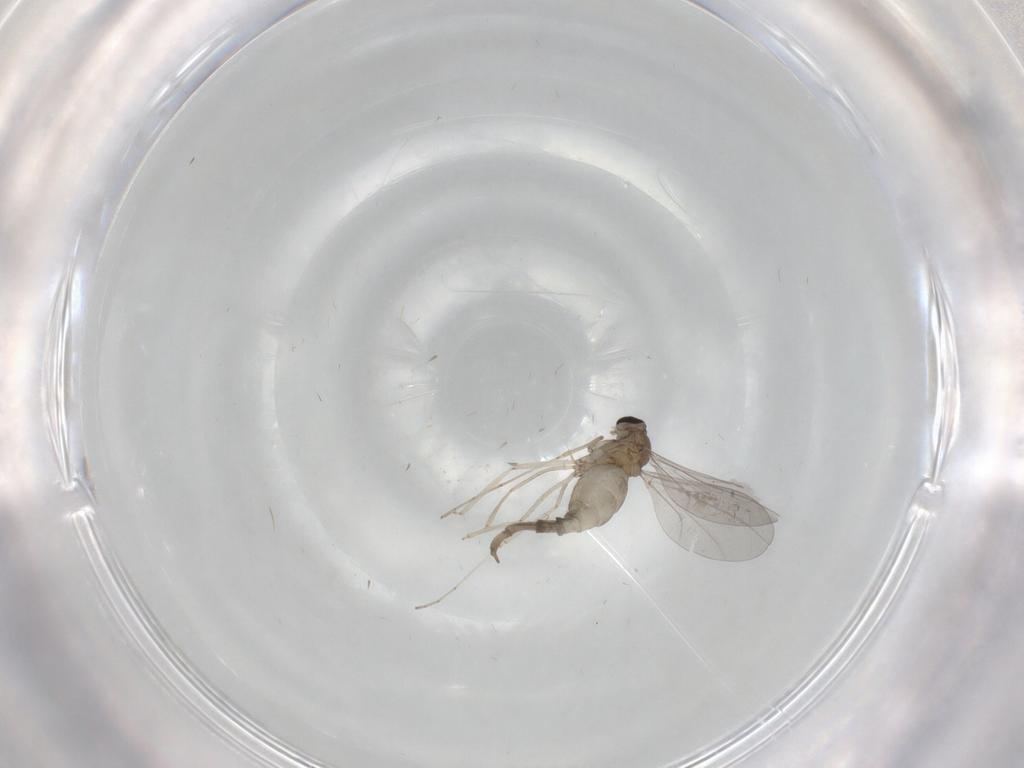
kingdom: Animalia
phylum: Arthropoda
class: Insecta
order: Diptera
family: Cecidomyiidae
